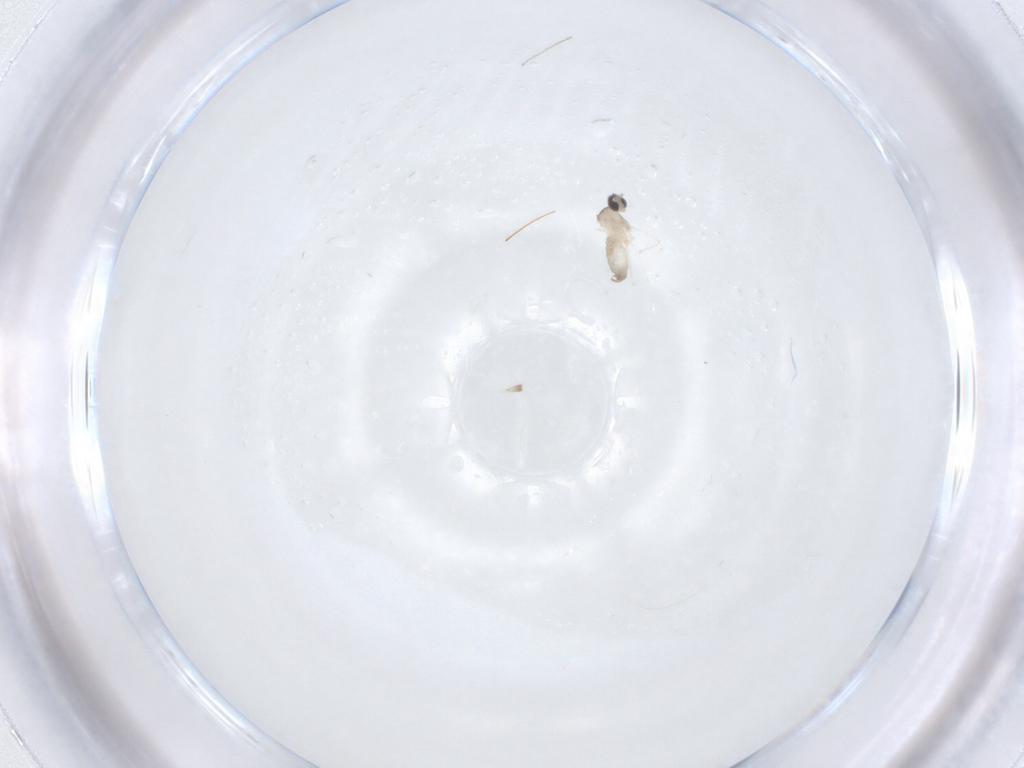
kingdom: Animalia
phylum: Arthropoda
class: Insecta
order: Diptera
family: Cecidomyiidae
